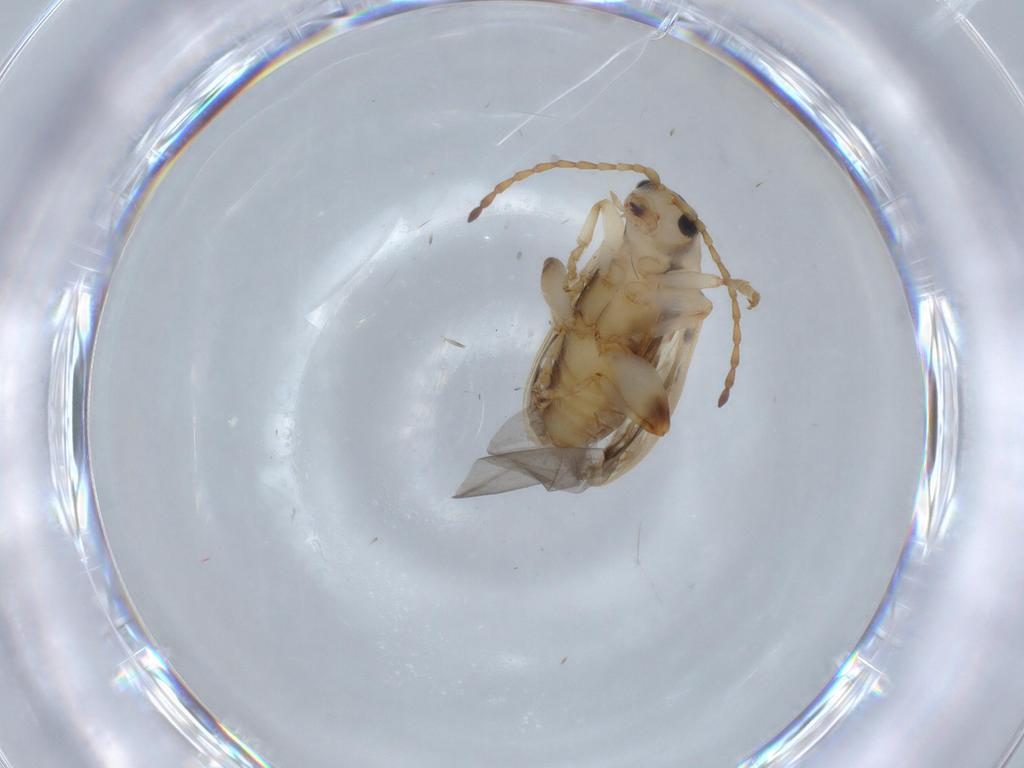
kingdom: Animalia
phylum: Arthropoda
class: Insecta
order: Coleoptera
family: Chrysomelidae
